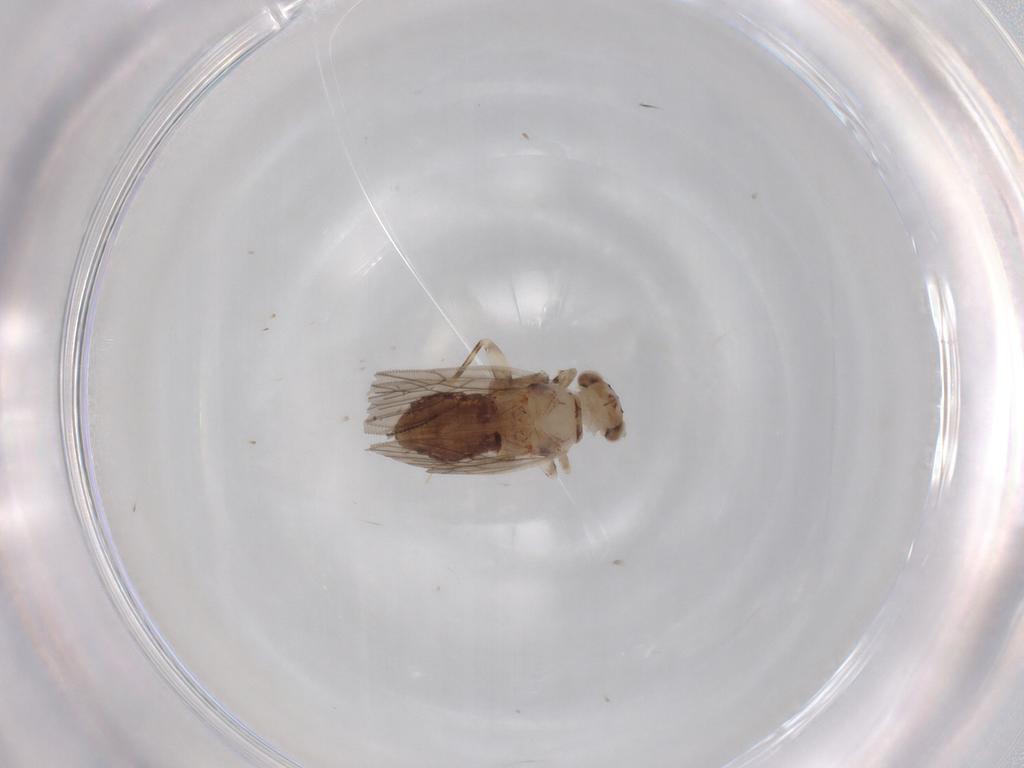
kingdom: Animalia
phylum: Arthropoda
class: Insecta
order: Psocodea
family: Lepidopsocidae
